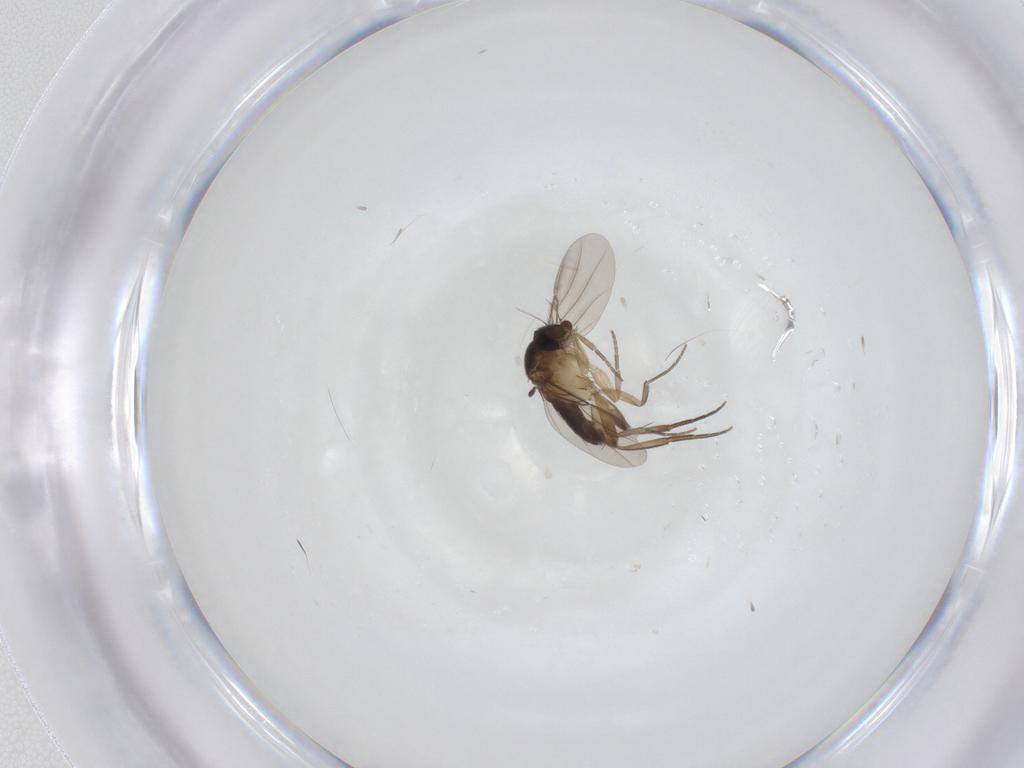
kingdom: Animalia
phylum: Arthropoda
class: Insecta
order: Diptera
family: Phoridae
